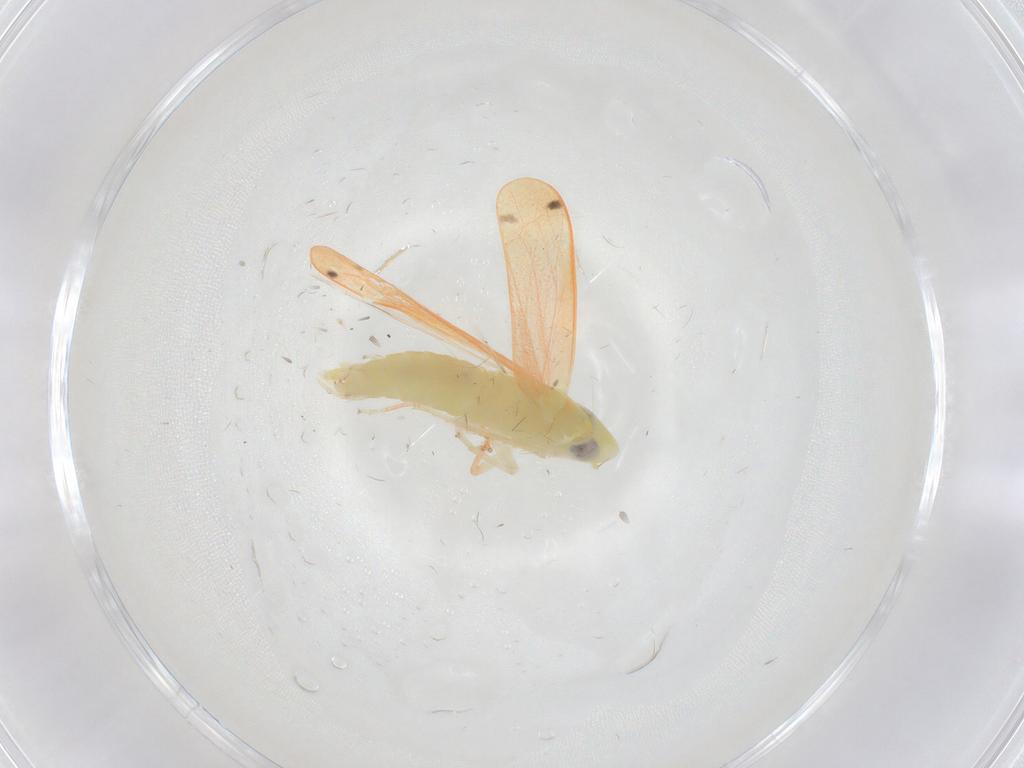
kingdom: Animalia
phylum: Arthropoda
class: Insecta
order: Hemiptera
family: Cicadellidae
